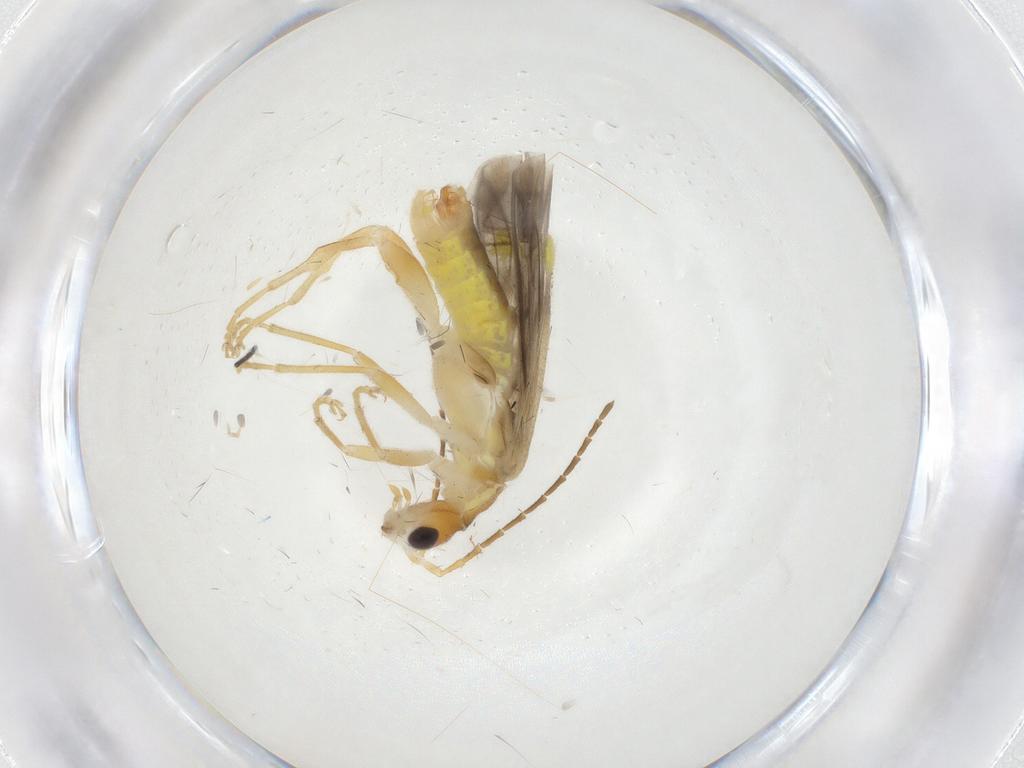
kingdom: Animalia
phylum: Arthropoda
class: Insecta
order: Coleoptera
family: Cantharidae
